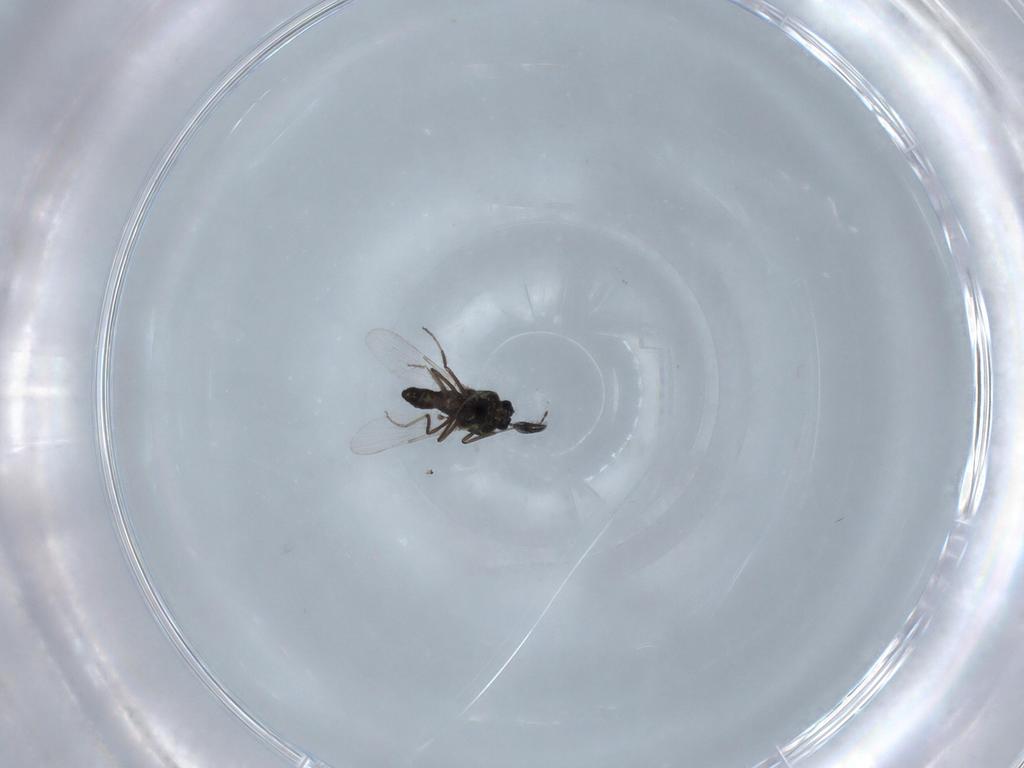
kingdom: Animalia
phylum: Arthropoda
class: Insecta
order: Diptera
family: Ceratopogonidae
